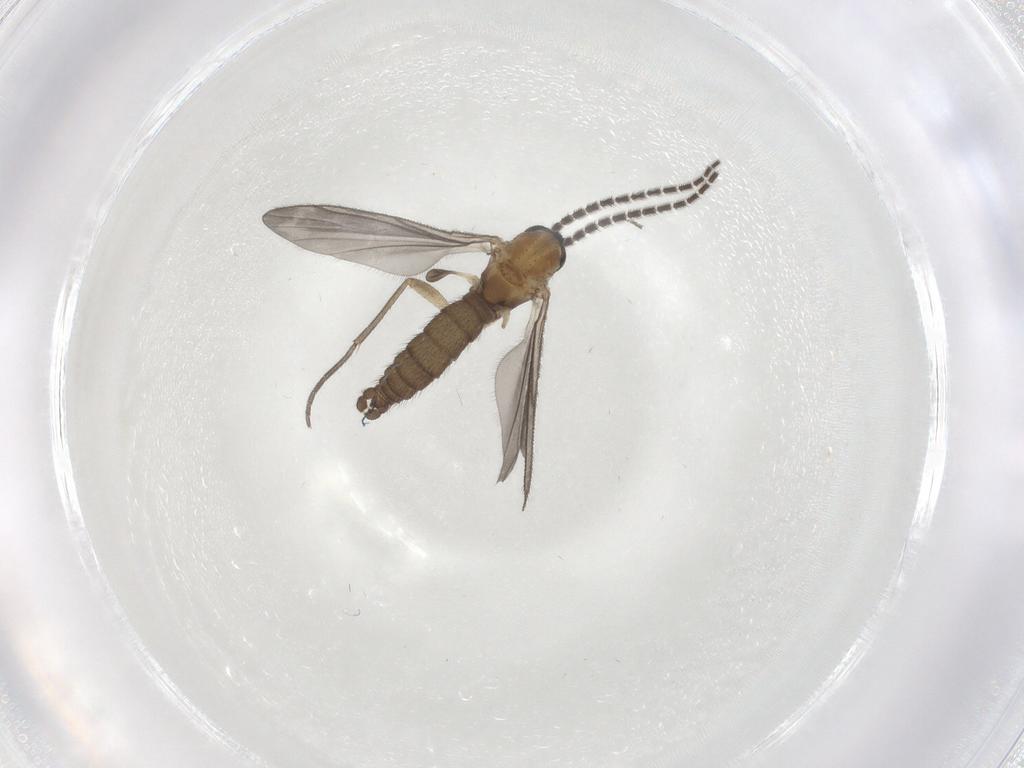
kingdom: Animalia
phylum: Arthropoda
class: Insecta
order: Diptera
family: Sciaridae
